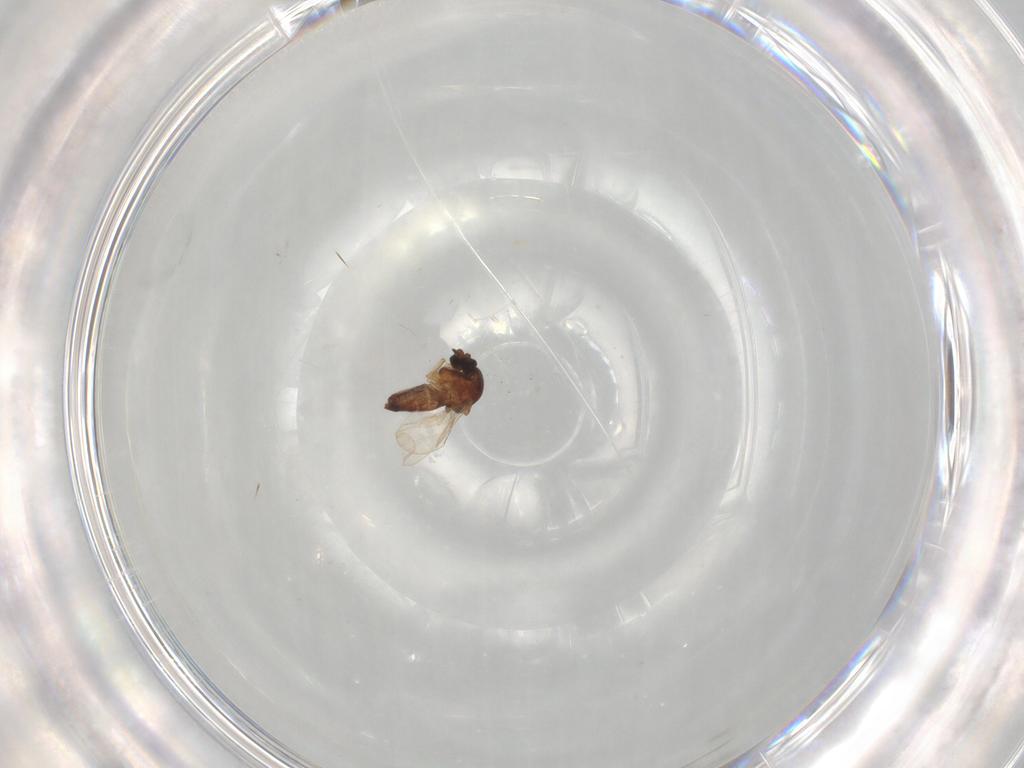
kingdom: Animalia
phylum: Arthropoda
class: Insecta
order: Diptera
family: Ceratopogonidae
